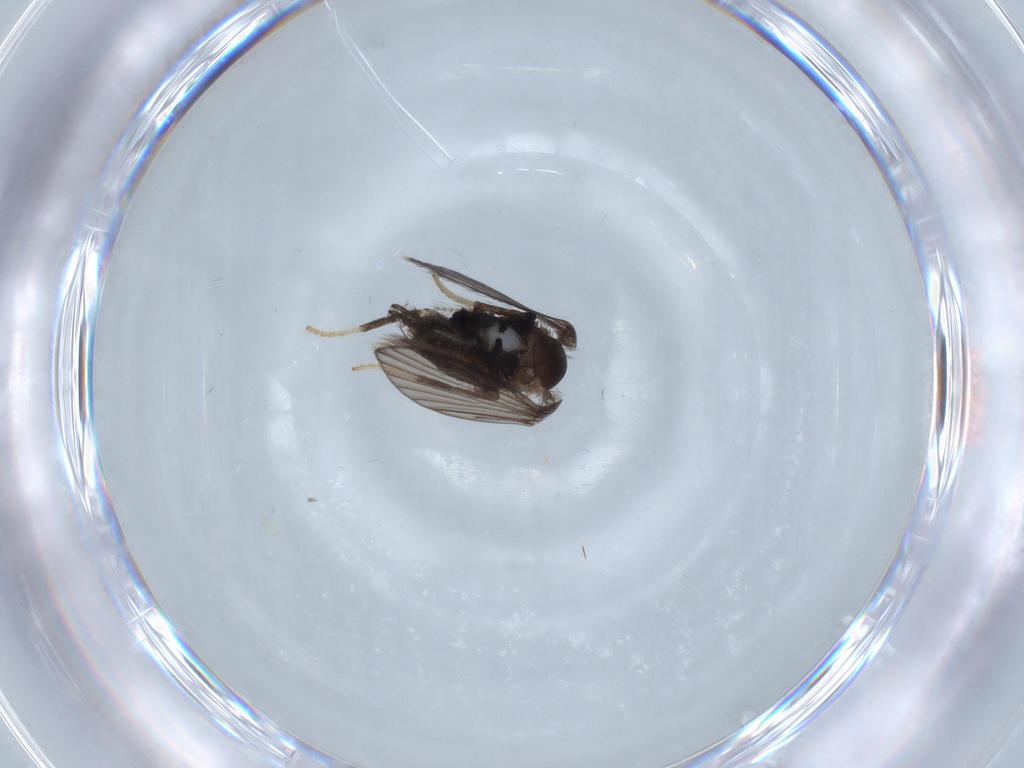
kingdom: Animalia
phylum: Arthropoda
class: Insecta
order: Diptera
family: Psychodidae
